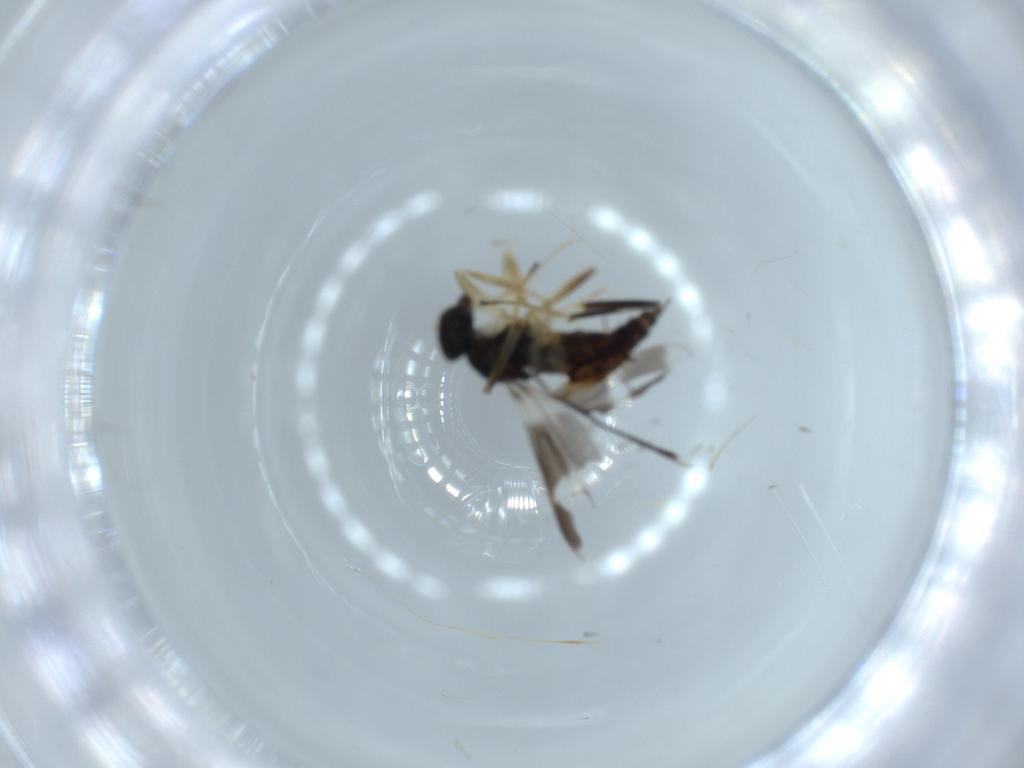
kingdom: Animalia
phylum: Arthropoda
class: Insecta
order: Diptera
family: Hybotidae
